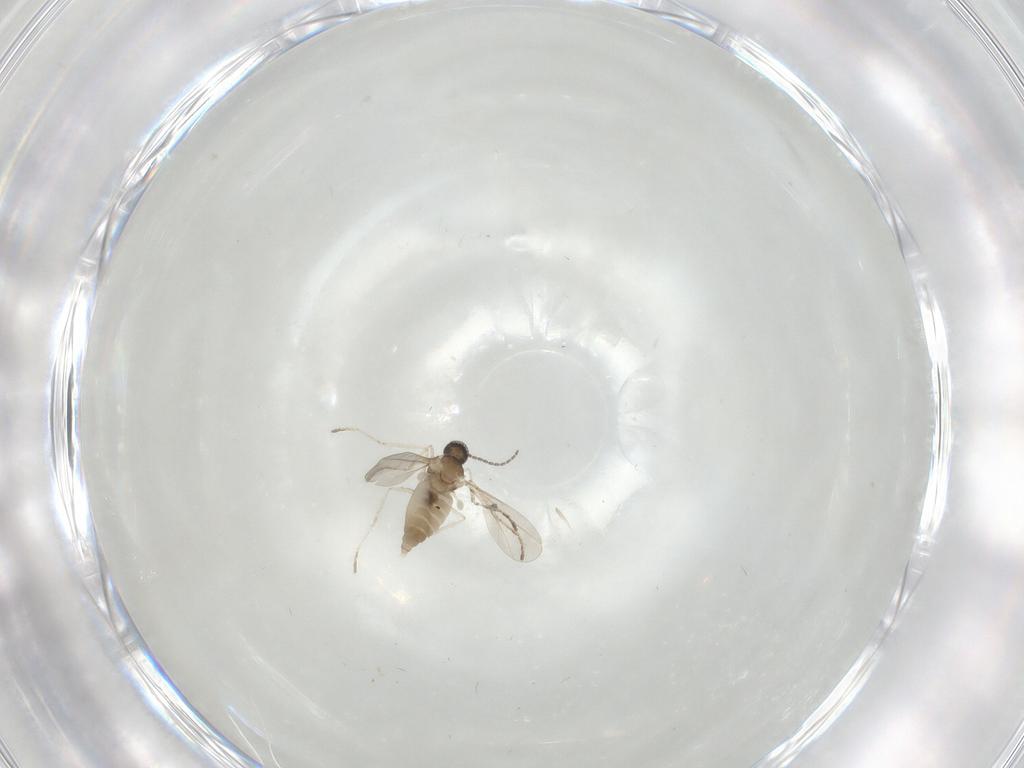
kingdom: Animalia
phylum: Arthropoda
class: Insecta
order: Diptera
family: Cecidomyiidae
